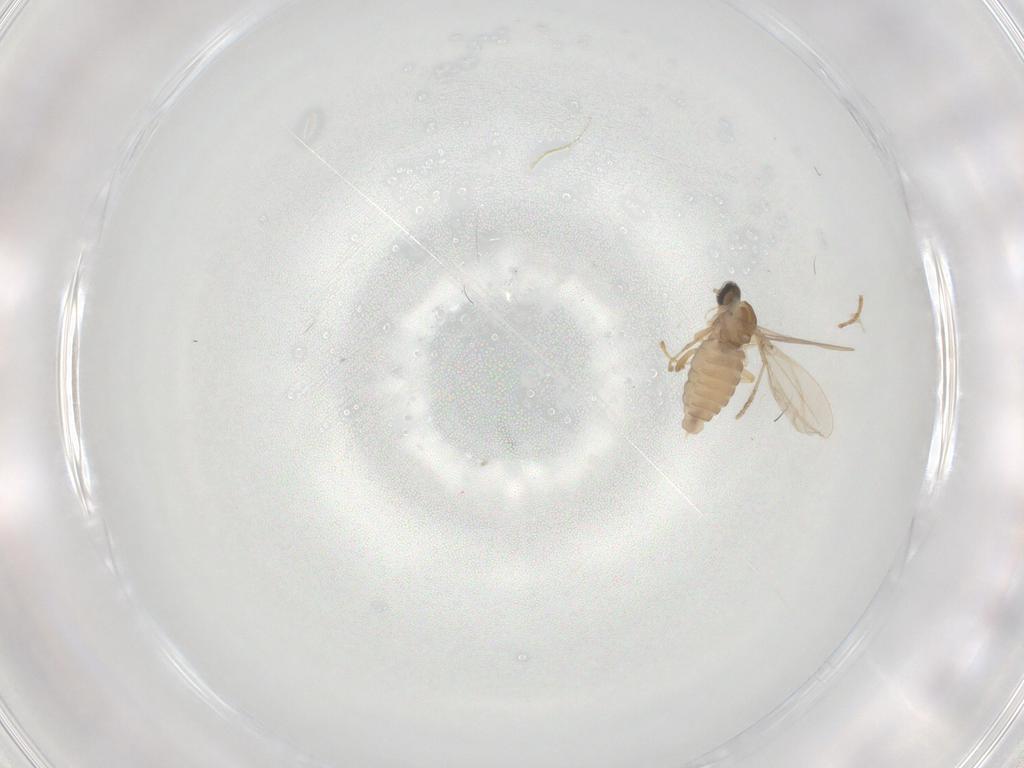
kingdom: Animalia
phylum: Arthropoda
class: Insecta
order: Diptera
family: Cecidomyiidae
